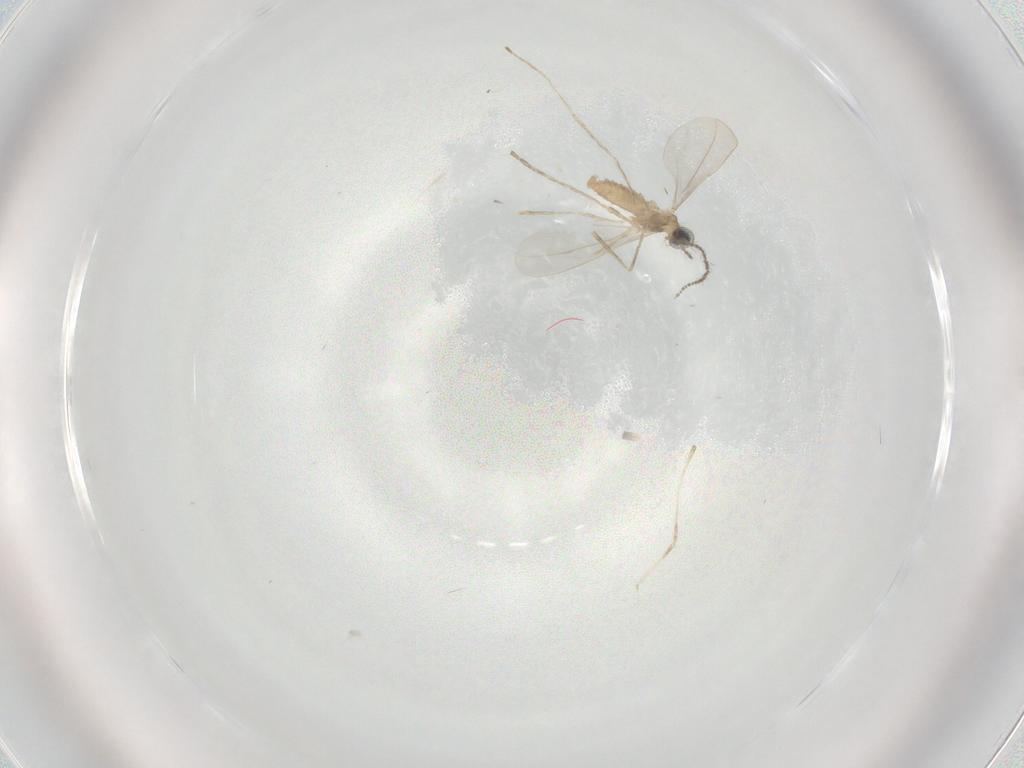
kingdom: Animalia
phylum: Arthropoda
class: Insecta
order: Diptera
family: Cecidomyiidae
